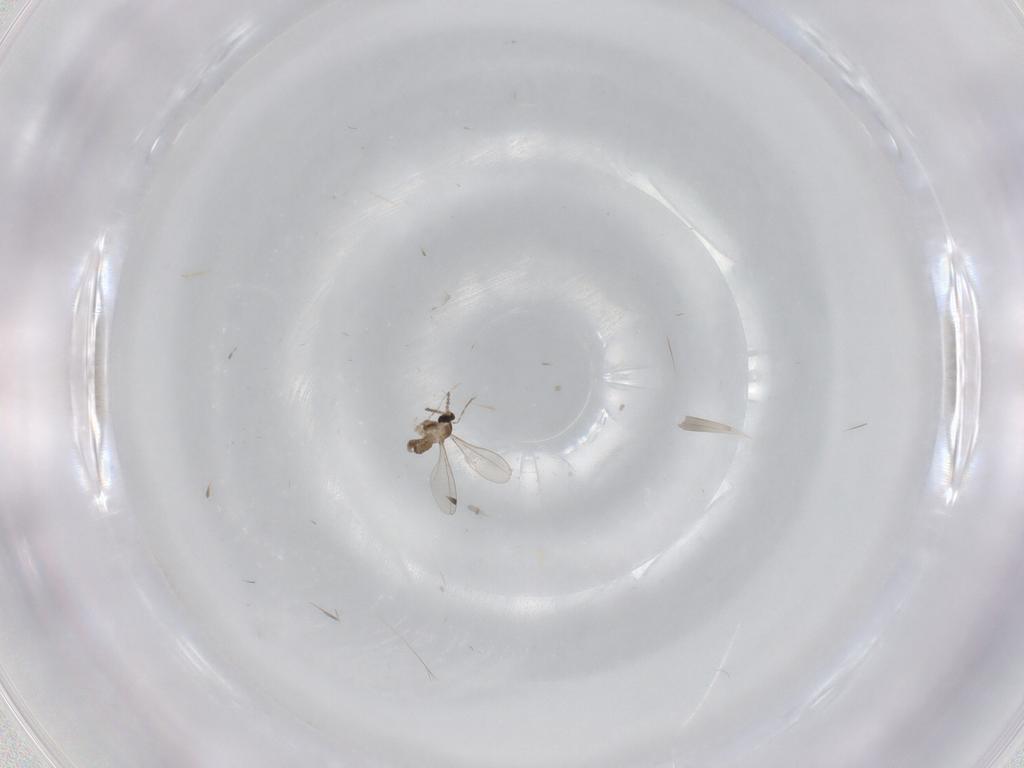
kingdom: Animalia
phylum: Arthropoda
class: Insecta
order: Diptera
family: Cecidomyiidae
